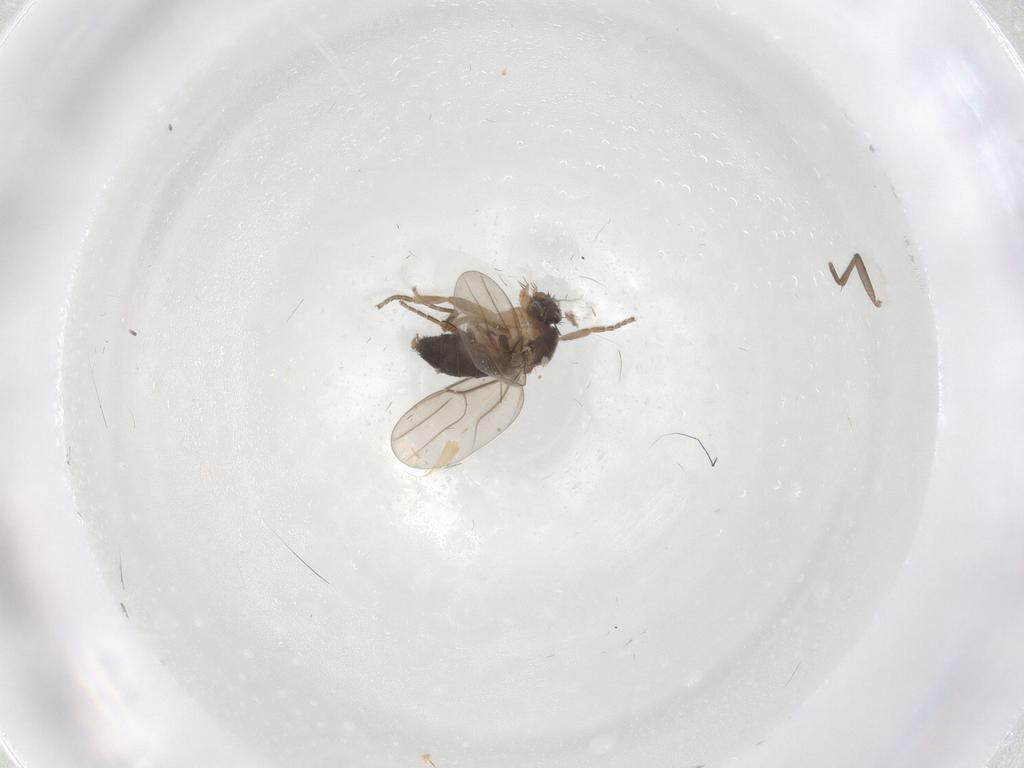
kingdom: Animalia
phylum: Arthropoda
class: Insecta
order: Diptera
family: Phoridae
